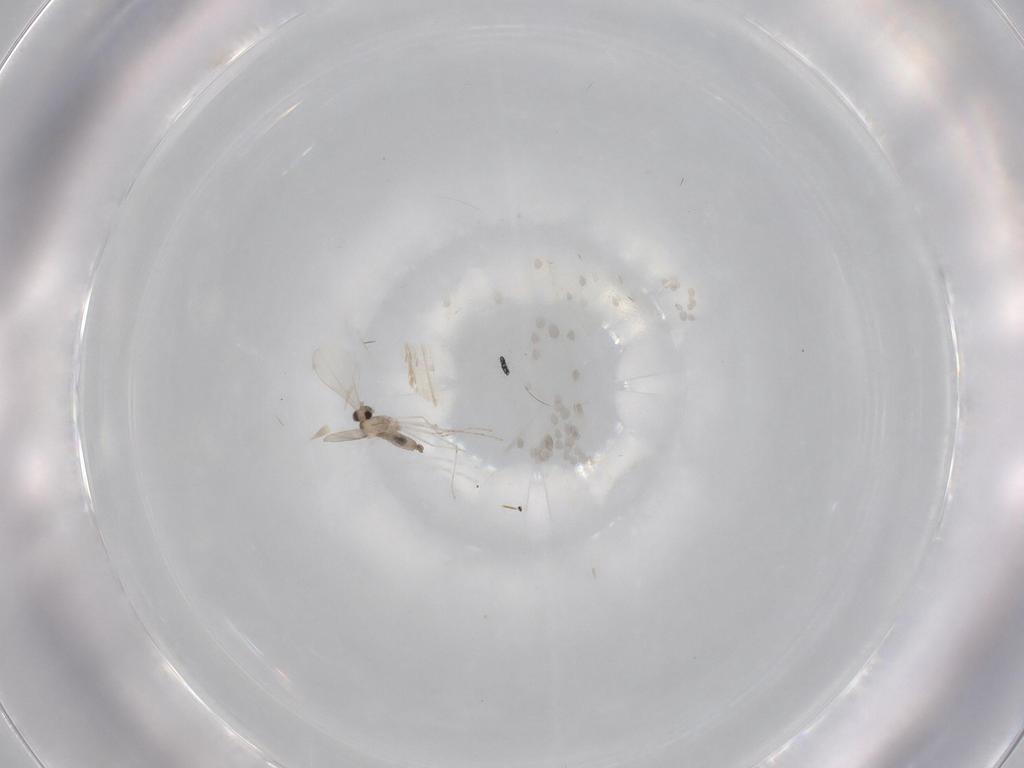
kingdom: Animalia
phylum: Arthropoda
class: Insecta
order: Diptera
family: Cecidomyiidae
